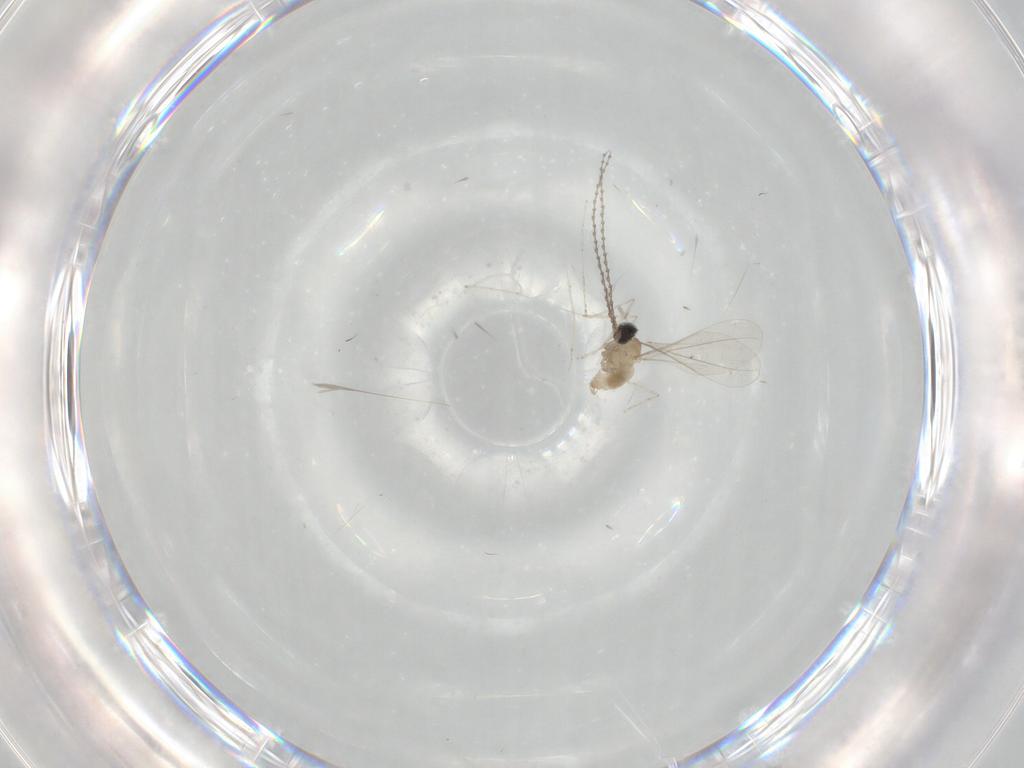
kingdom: Animalia
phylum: Arthropoda
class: Insecta
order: Diptera
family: Cecidomyiidae
